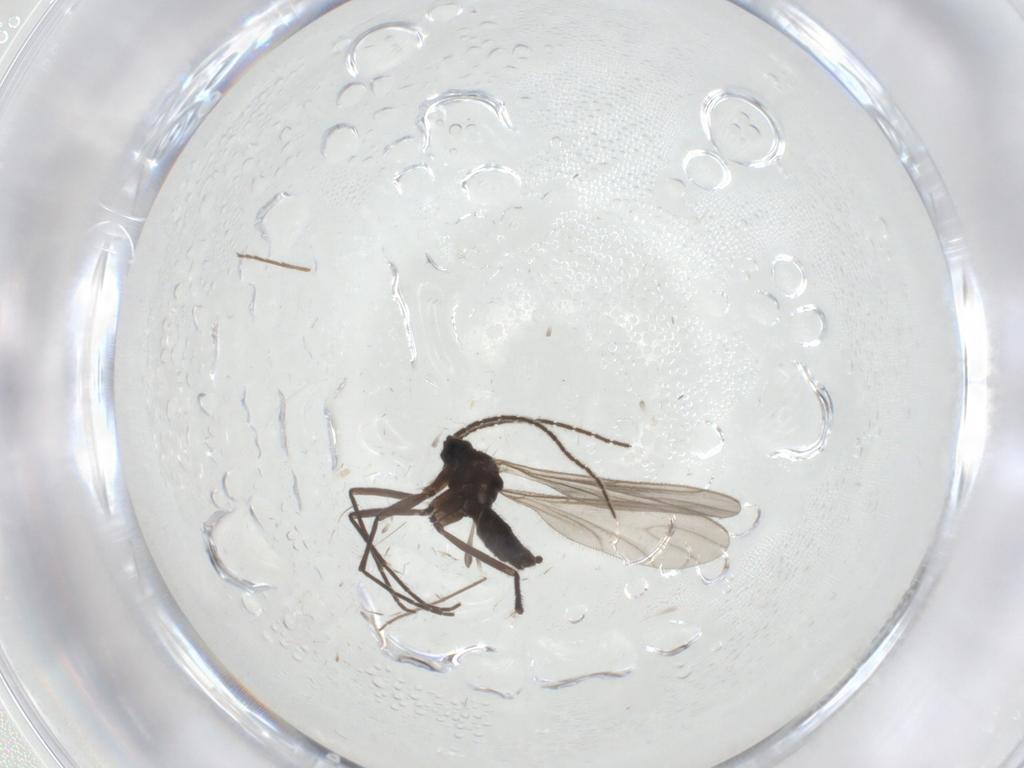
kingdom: Animalia
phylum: Arthropoda
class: Insecta
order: Diptera
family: Sciaridae
